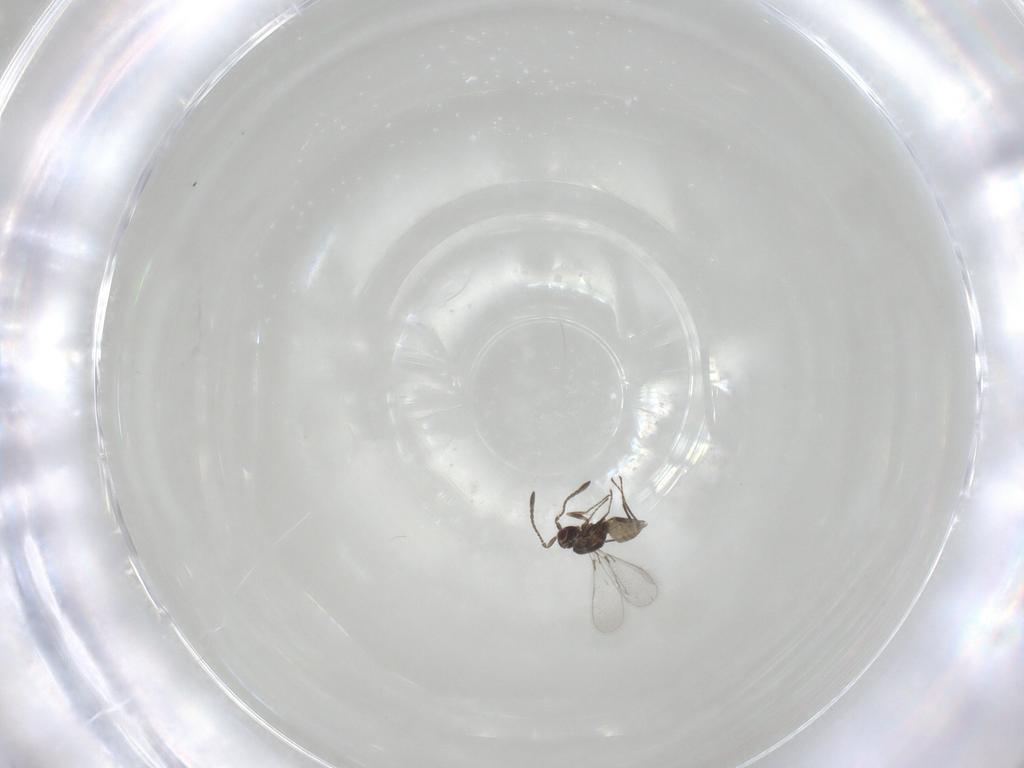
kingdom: Animalia
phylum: Arthropoda
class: Insecta
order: Hymenoptera
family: Mymaridae
